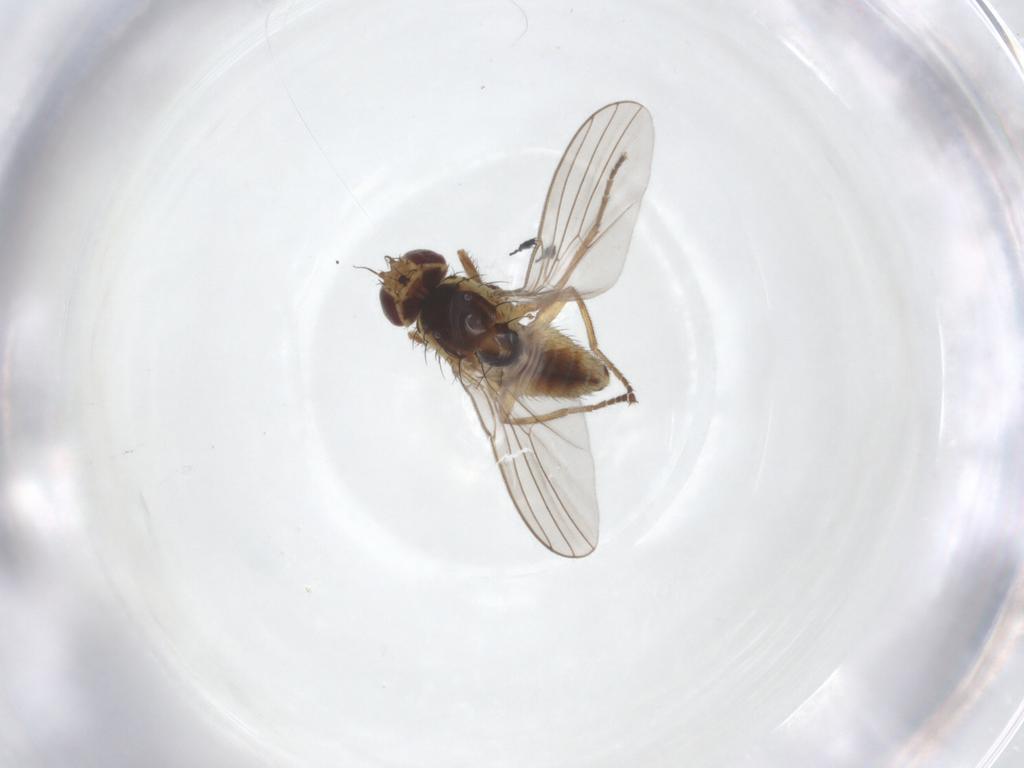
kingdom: Animalia
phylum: Arthropoda
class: Insecta
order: Diptera
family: Agromyzidae
